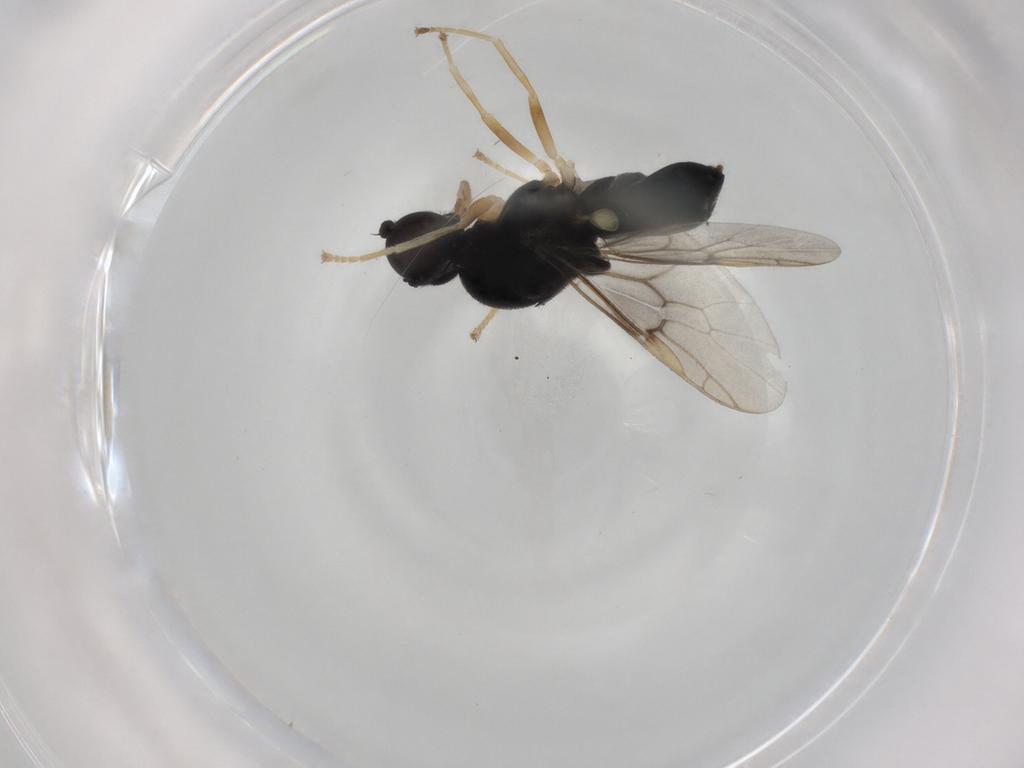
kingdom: Animalia
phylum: Arthropoda
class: Insecta
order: Diptera
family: Stratiomyidae
